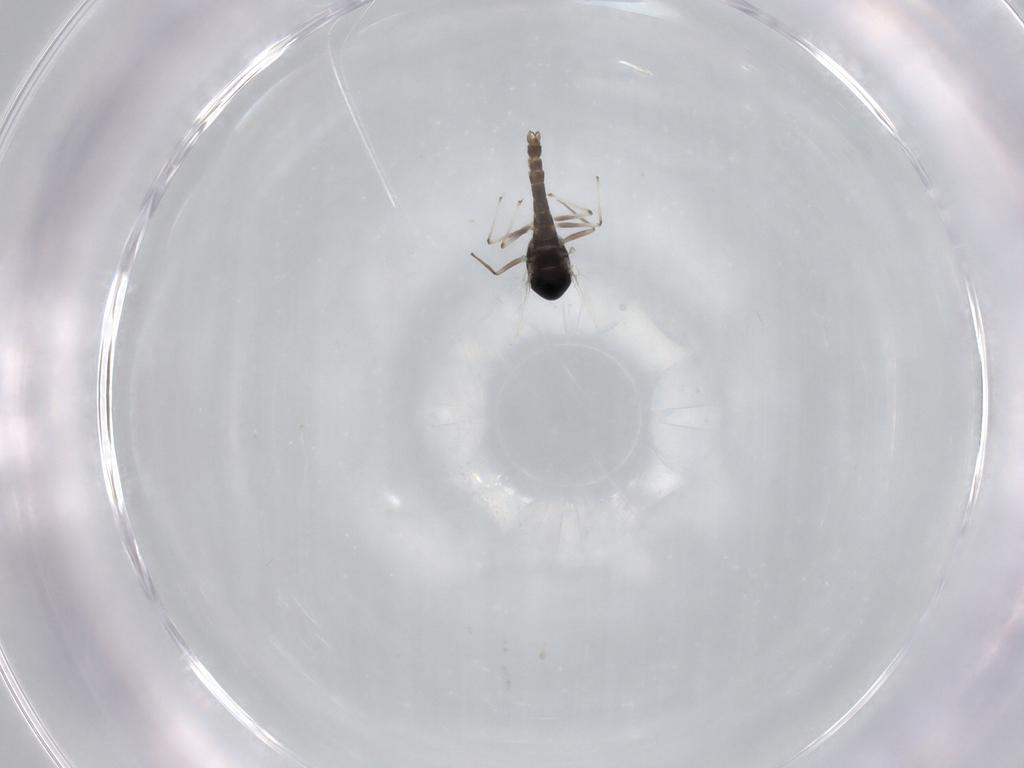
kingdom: Animalia
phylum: Arthropoda
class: Insecta
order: Diptera
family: Chironomidae
